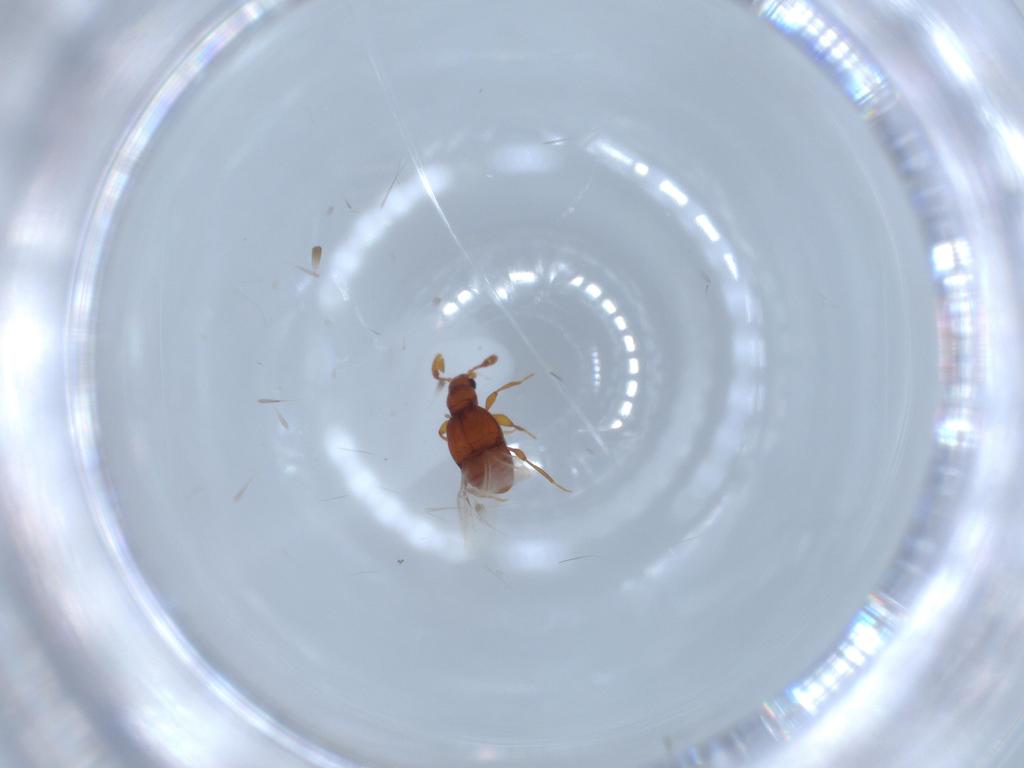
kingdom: Animalia
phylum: Arthropoda
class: Insecta
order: Coleoptera
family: Staphylinidae
